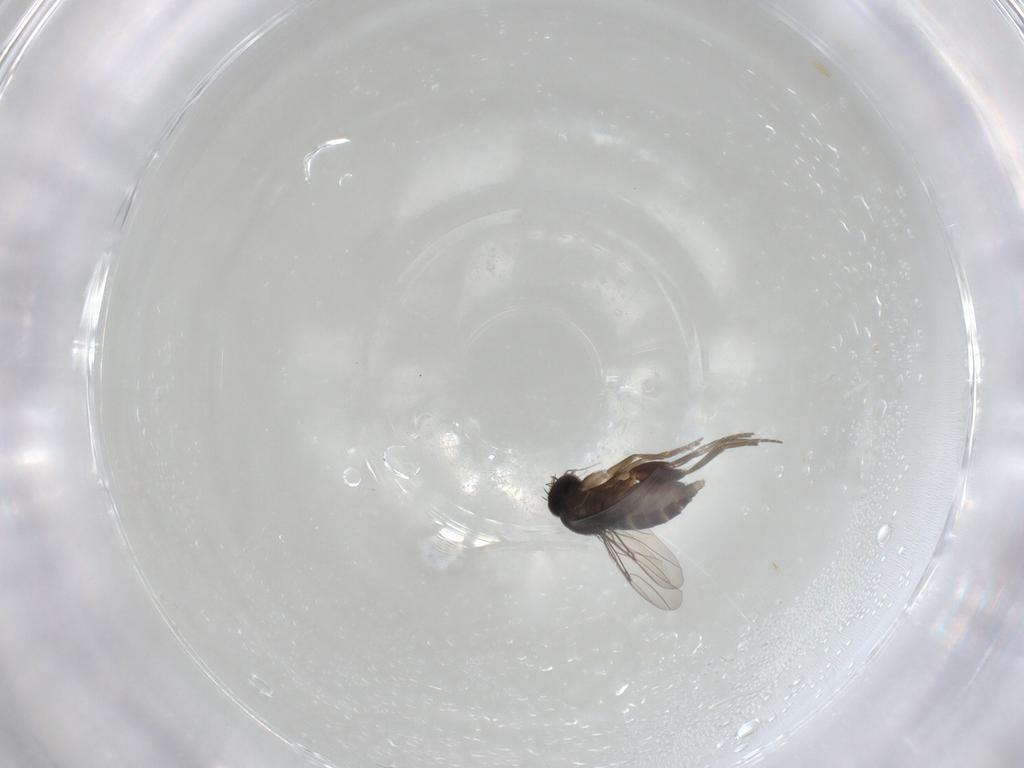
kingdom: Animalia
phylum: Arthropoda
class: Insecta
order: Diptera
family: Phoridae
